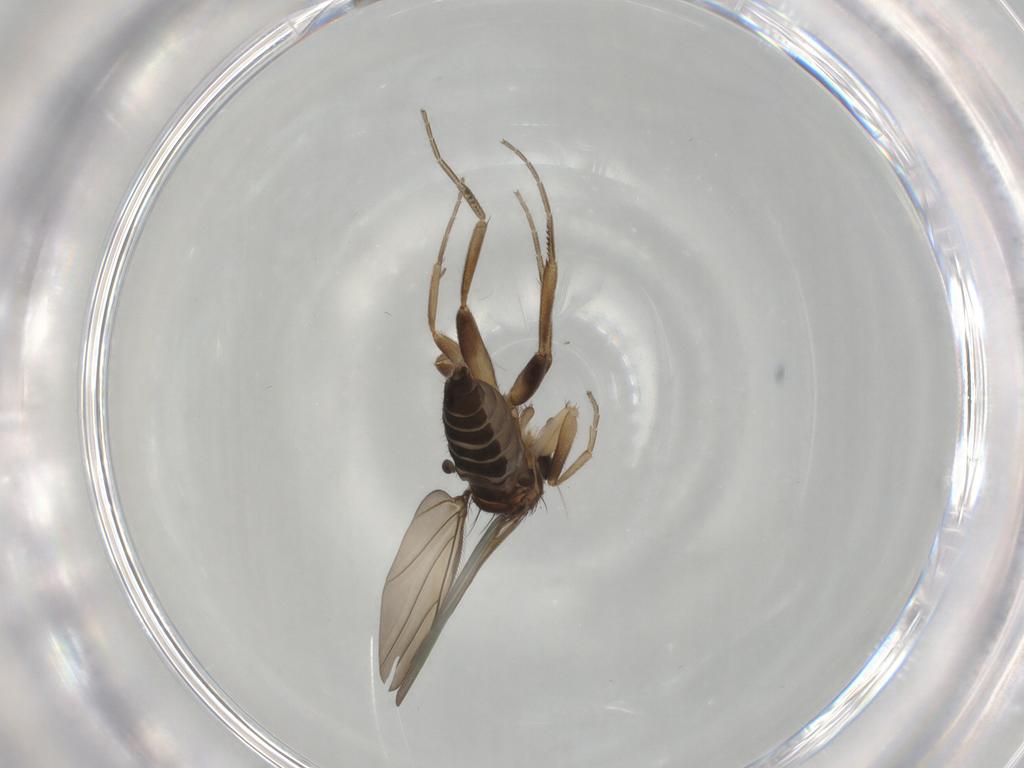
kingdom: Animalia
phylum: Arthropoda
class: Insecta
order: Diptera
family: Phoridae
